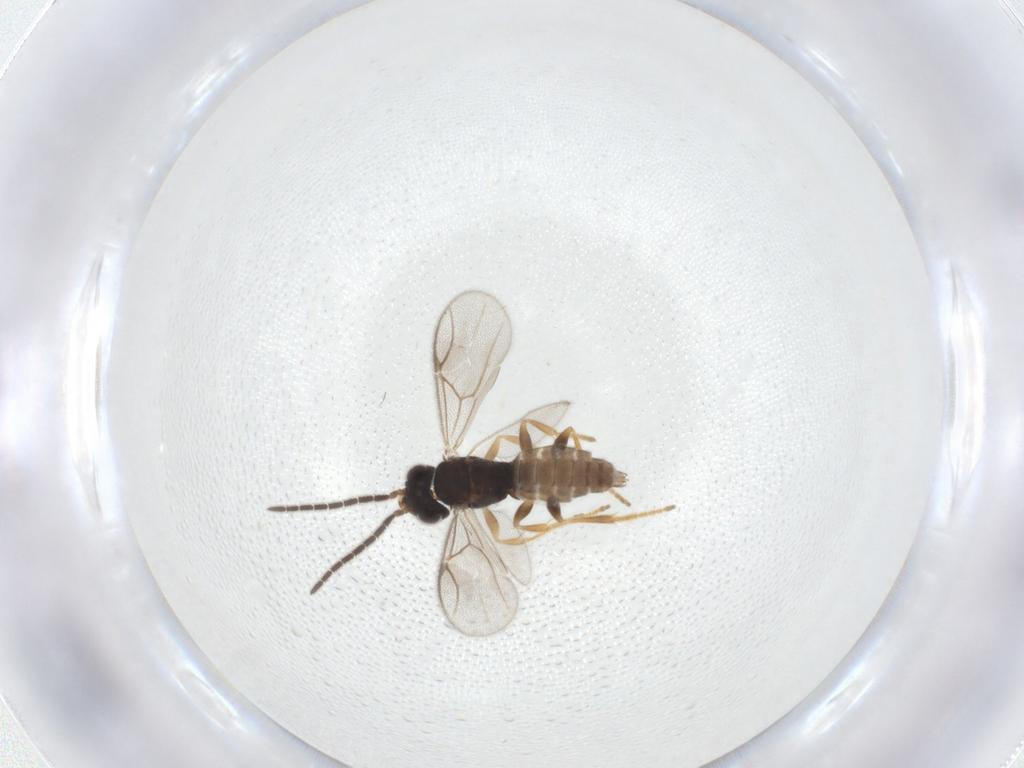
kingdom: Animalia
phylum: Arthropoda
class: Insecta
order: Hymenoptera
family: Dryinidae
